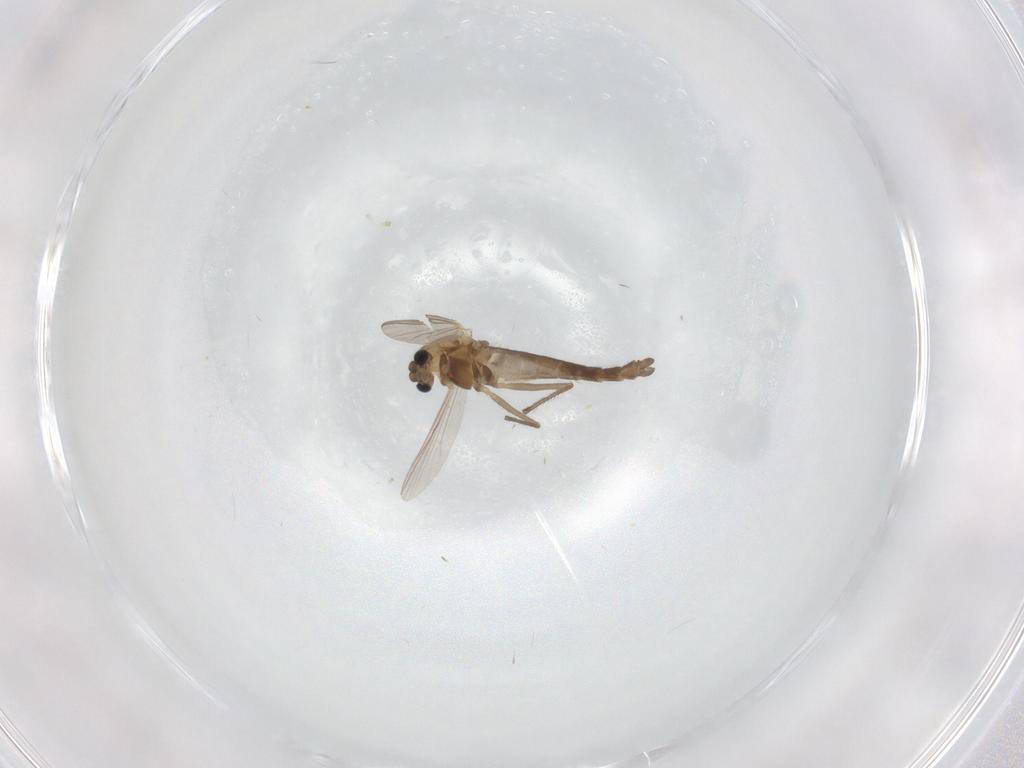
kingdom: Animalia
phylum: Arthropoda
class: Insecta
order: Diptera
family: Chironomidae
